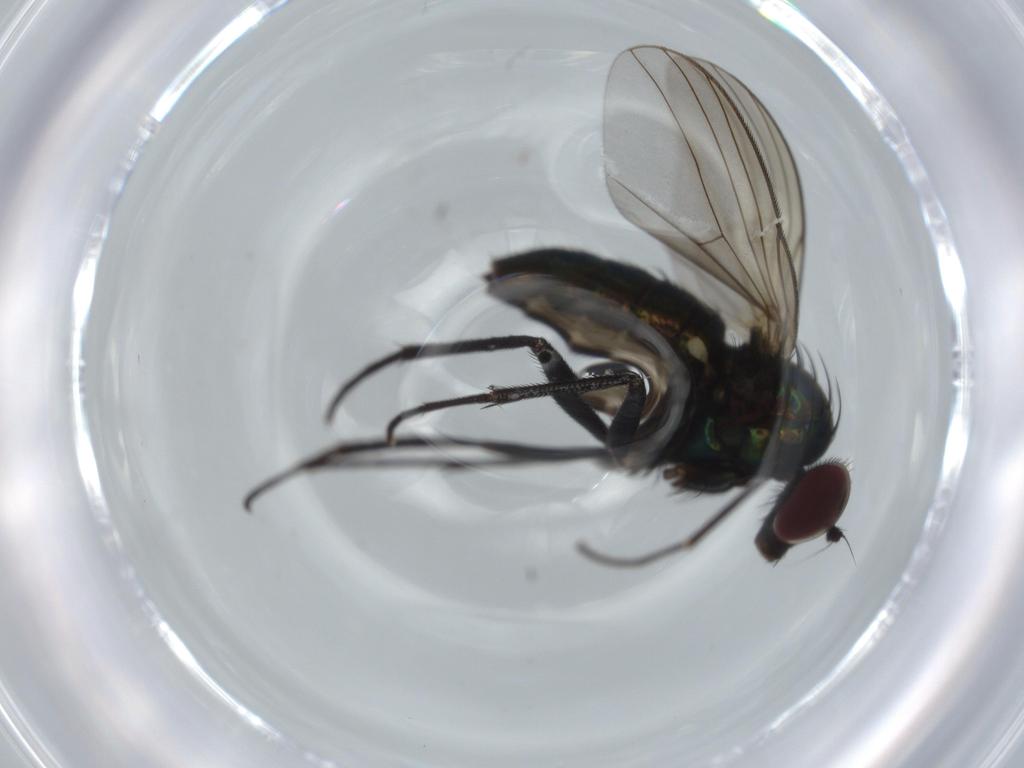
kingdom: Animalia
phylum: Arthropoda
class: Insecta
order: Diptera
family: Dolichopodidae
